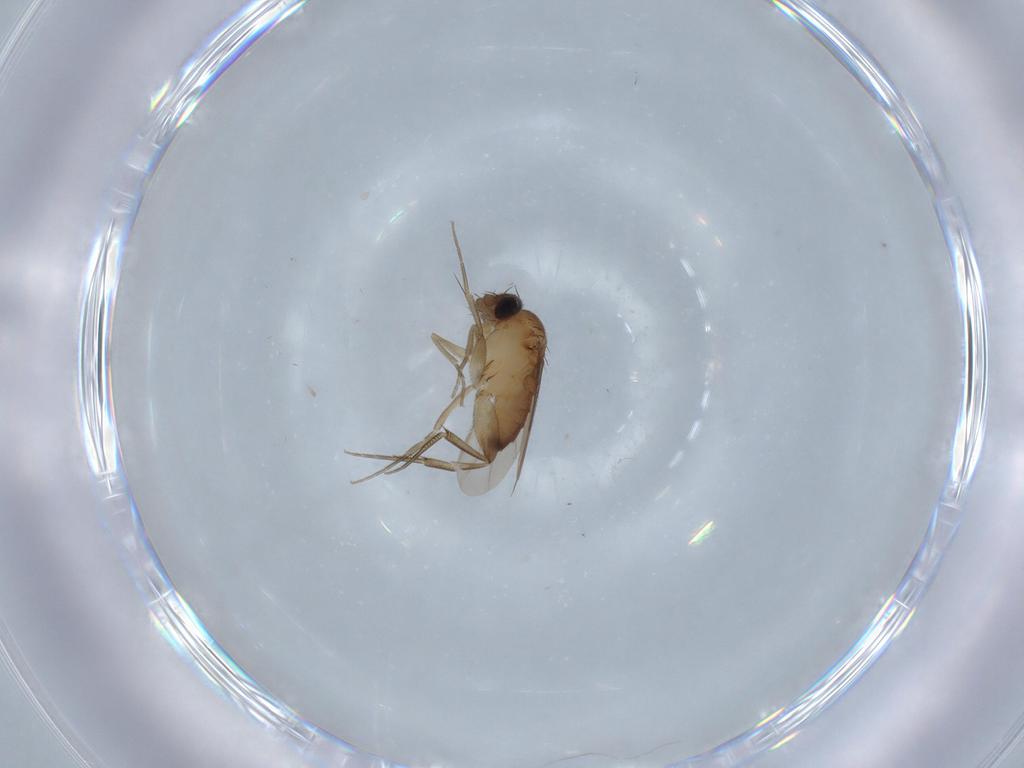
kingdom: Animalia
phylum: Arthropoda
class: Insecta
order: Diptera
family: Phoridae
